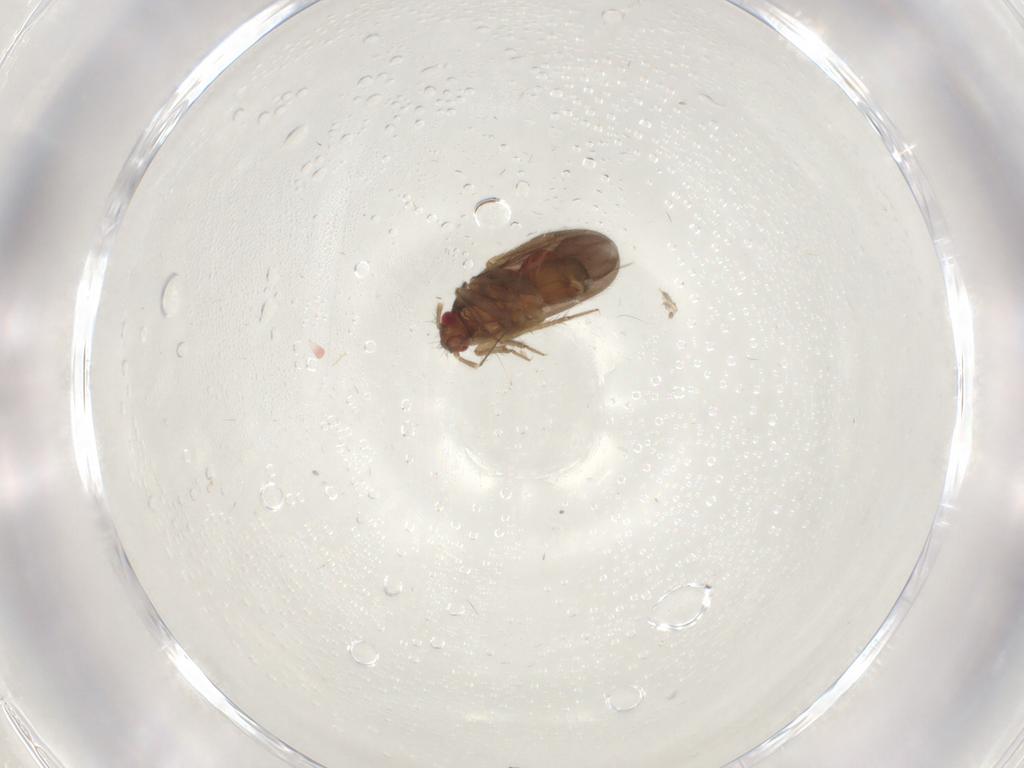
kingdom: Animalia
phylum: Arthropoda
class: Insecta
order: Hemiptera
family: Ceratocombidae
